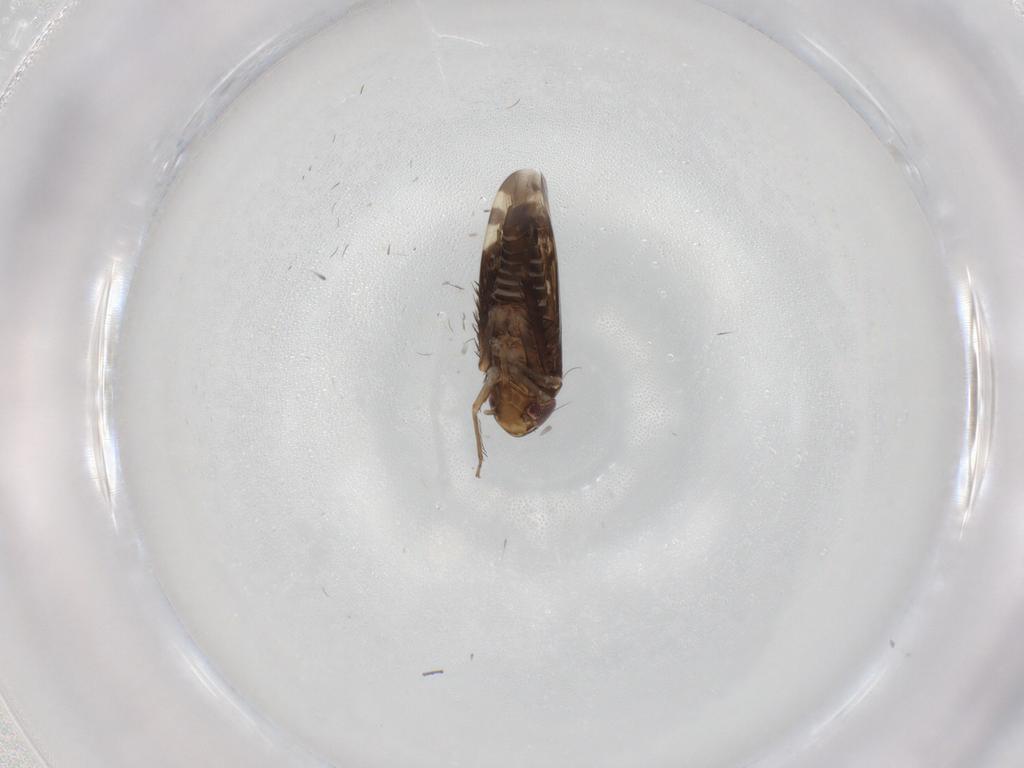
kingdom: Animalia
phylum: Arthropoda
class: Insecta
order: Hemiptera
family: Cicadellidae
